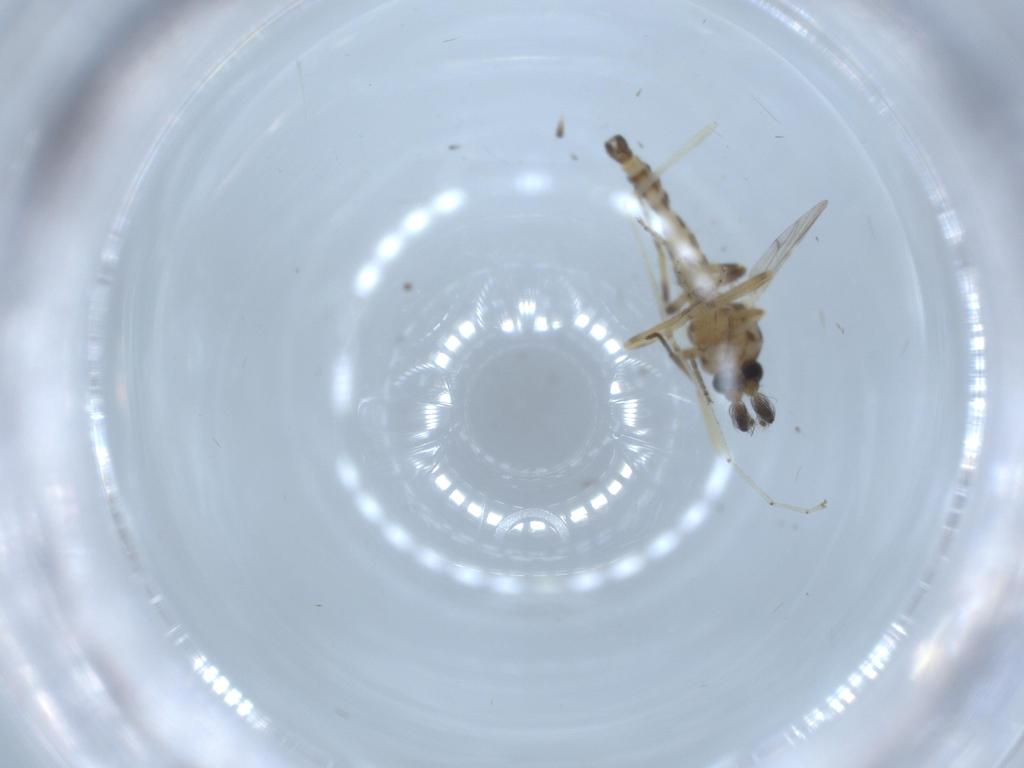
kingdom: Animalia
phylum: Arthropoda
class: Insecta
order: Diptera
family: Ceratopogonidae
